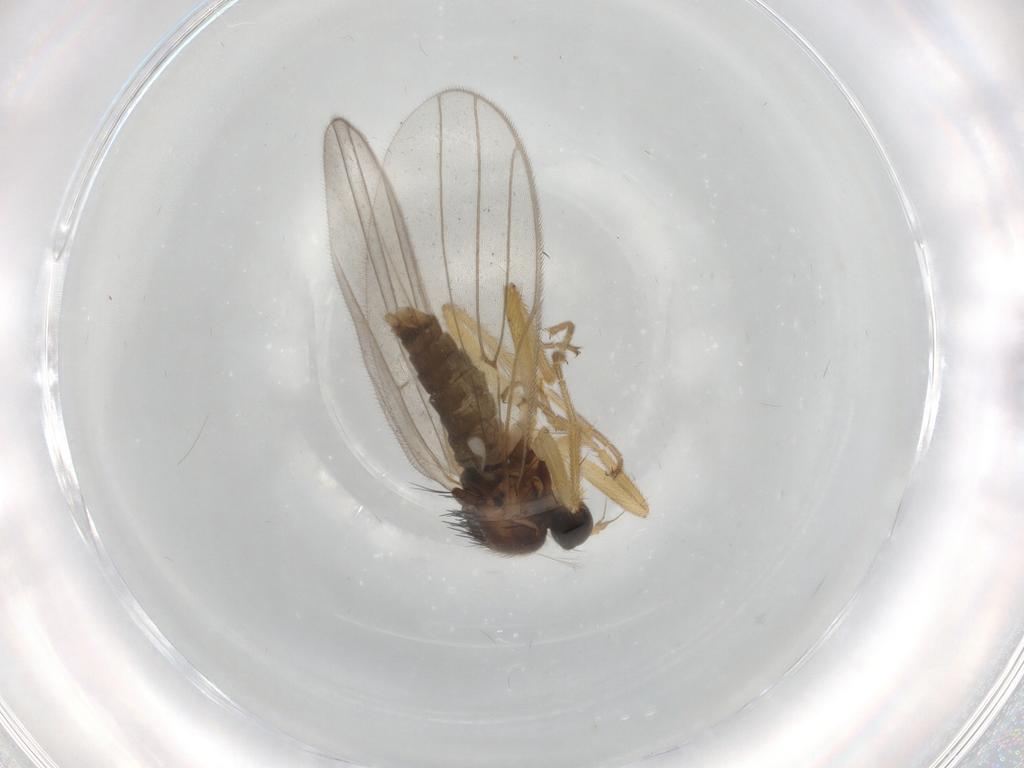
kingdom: Animalia
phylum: Arthropoda
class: Insecta
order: Diptera
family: Hybotidae
